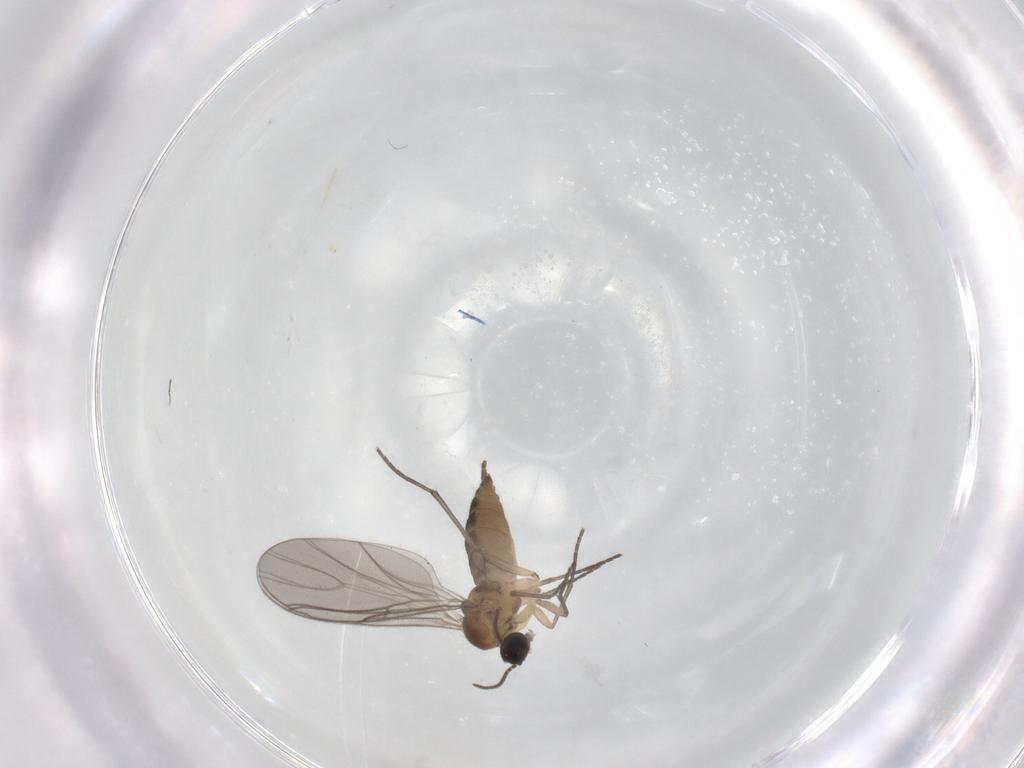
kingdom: Animalia
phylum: Arthropoda
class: Insecta
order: Diptera
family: Sciaridae
